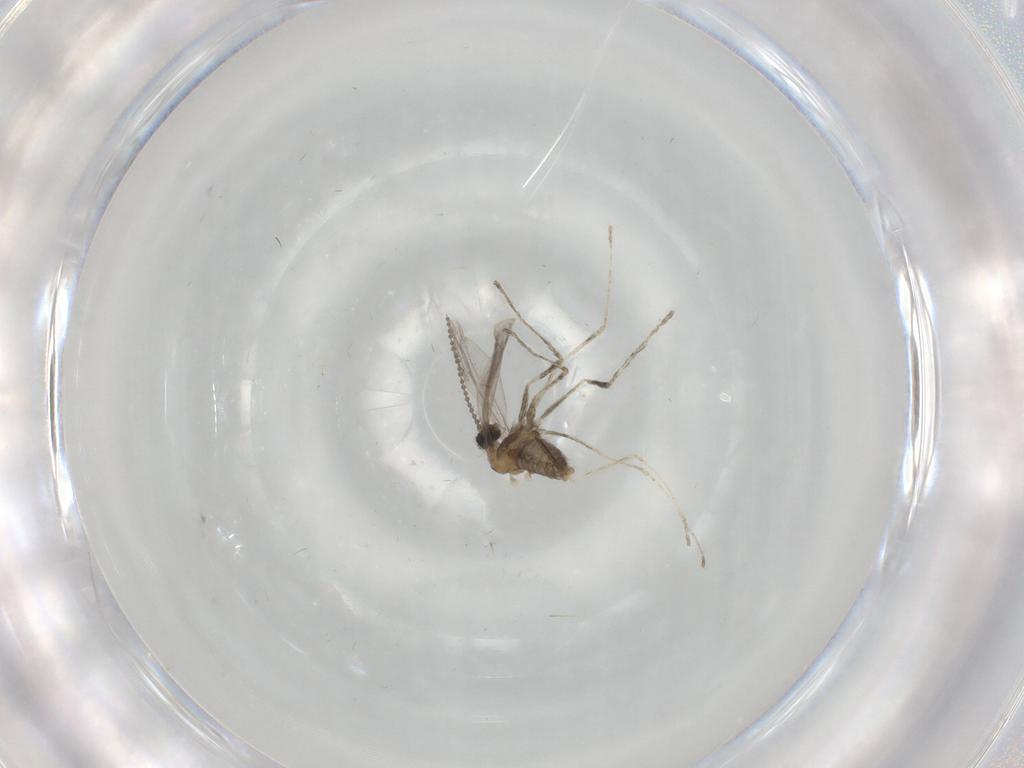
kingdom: Animalia
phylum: Arthropoda
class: Insecta
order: Diptera
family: Cecidomyiidae
